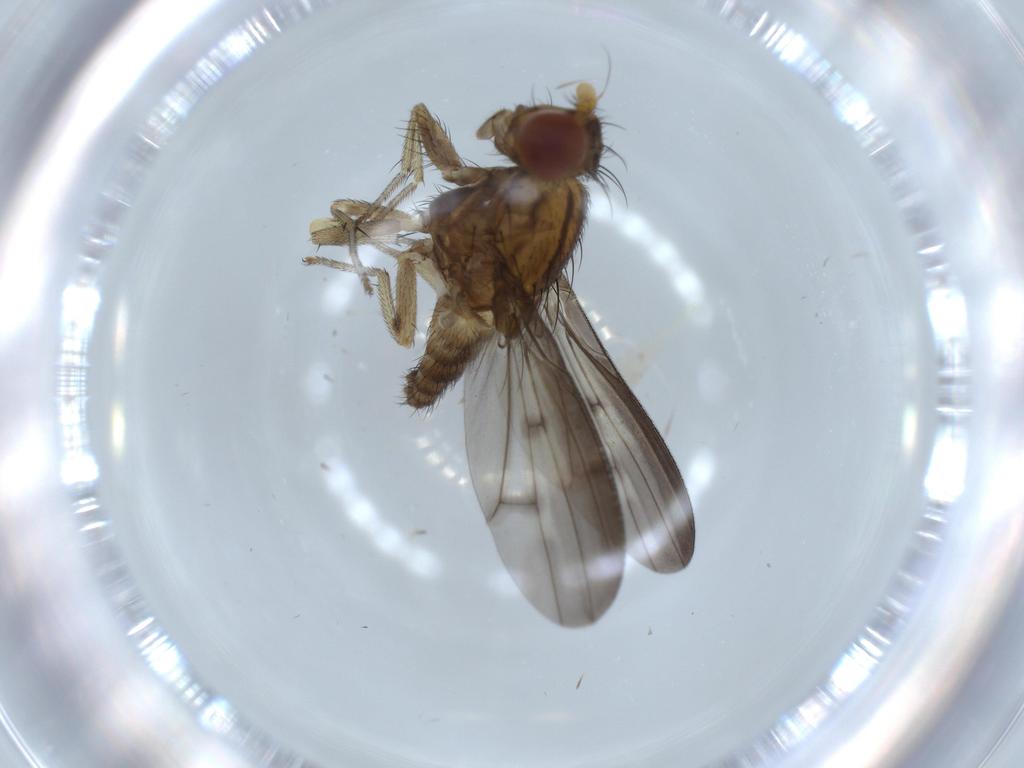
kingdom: Animalia
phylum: Arthropoda
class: Insecta
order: Diptera
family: Lauxaniidae
